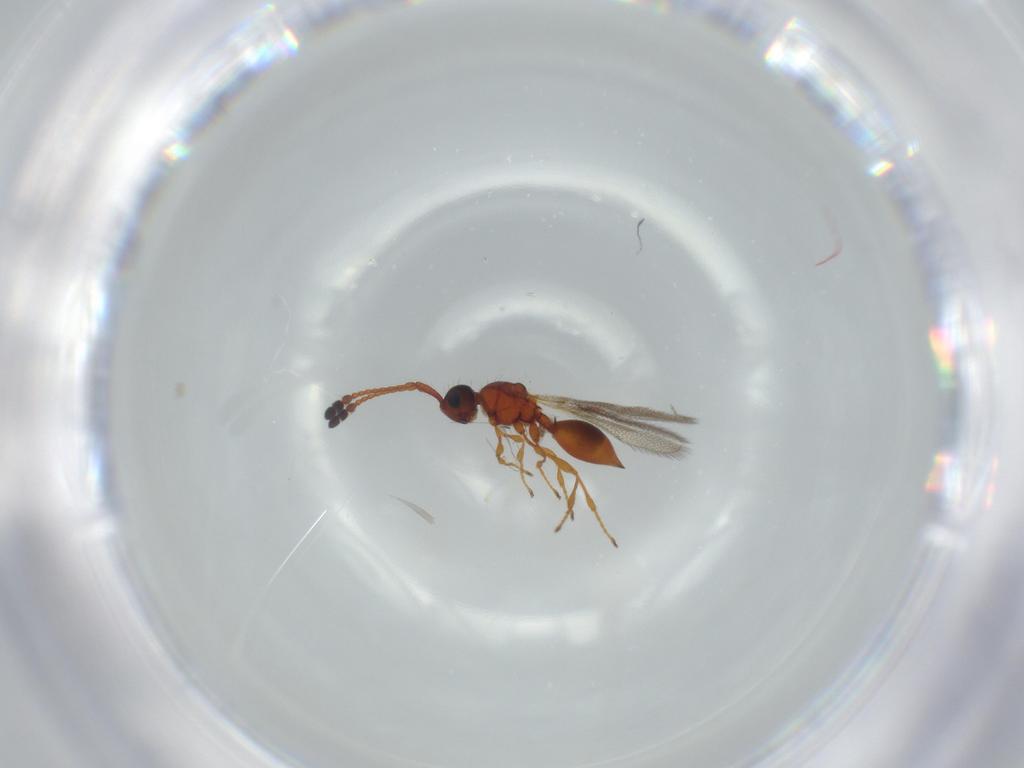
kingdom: Animalia
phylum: Arthropoda
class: Insecta
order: Hymenoptera
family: Diapriidae
